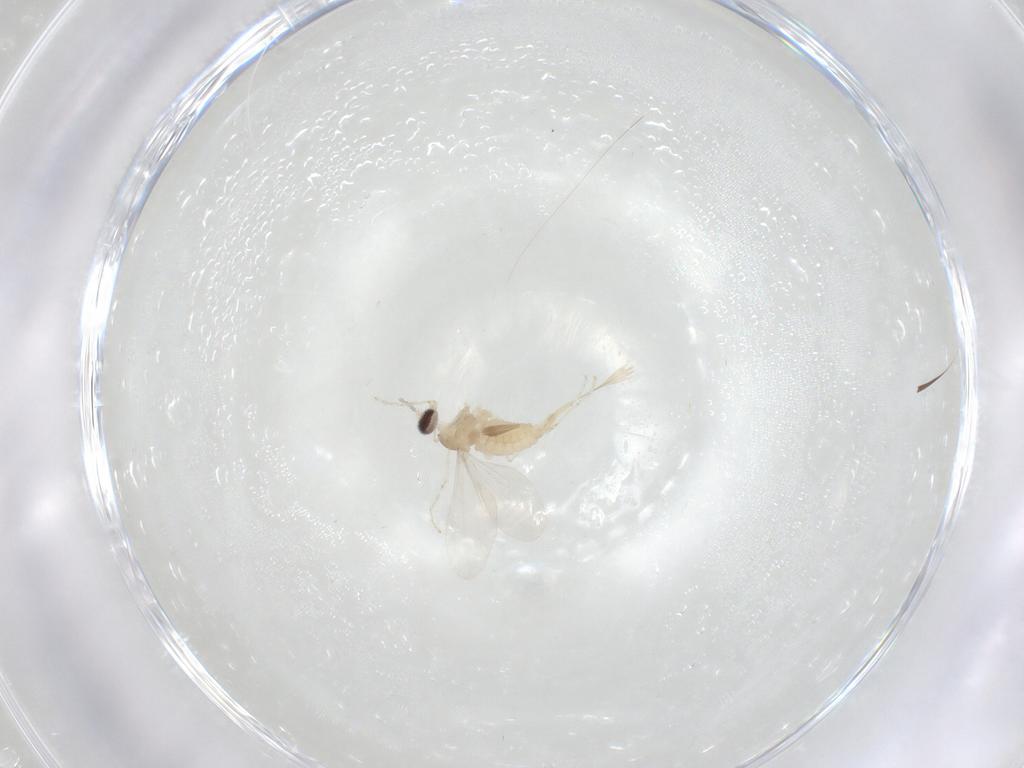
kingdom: Animalia
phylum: Arthropoda
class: Insecta
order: Diptera
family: Cecidomyiidae
